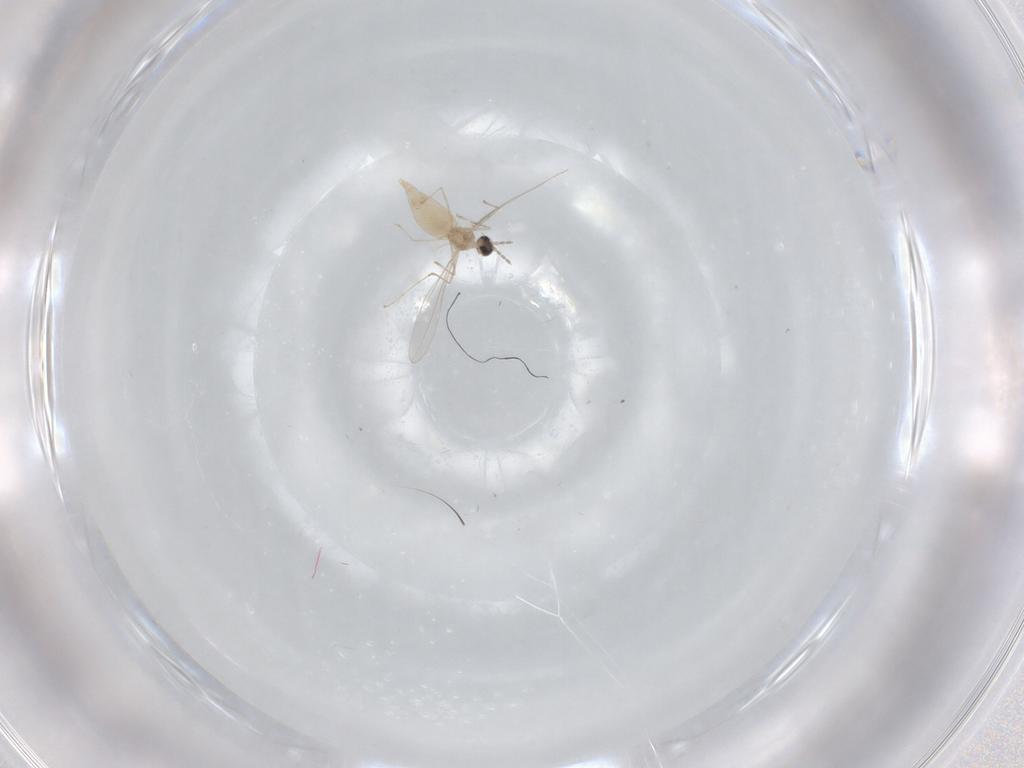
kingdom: Animalia
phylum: Arthropoda
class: Insecta
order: Diptera
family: Cecidomyiidae
